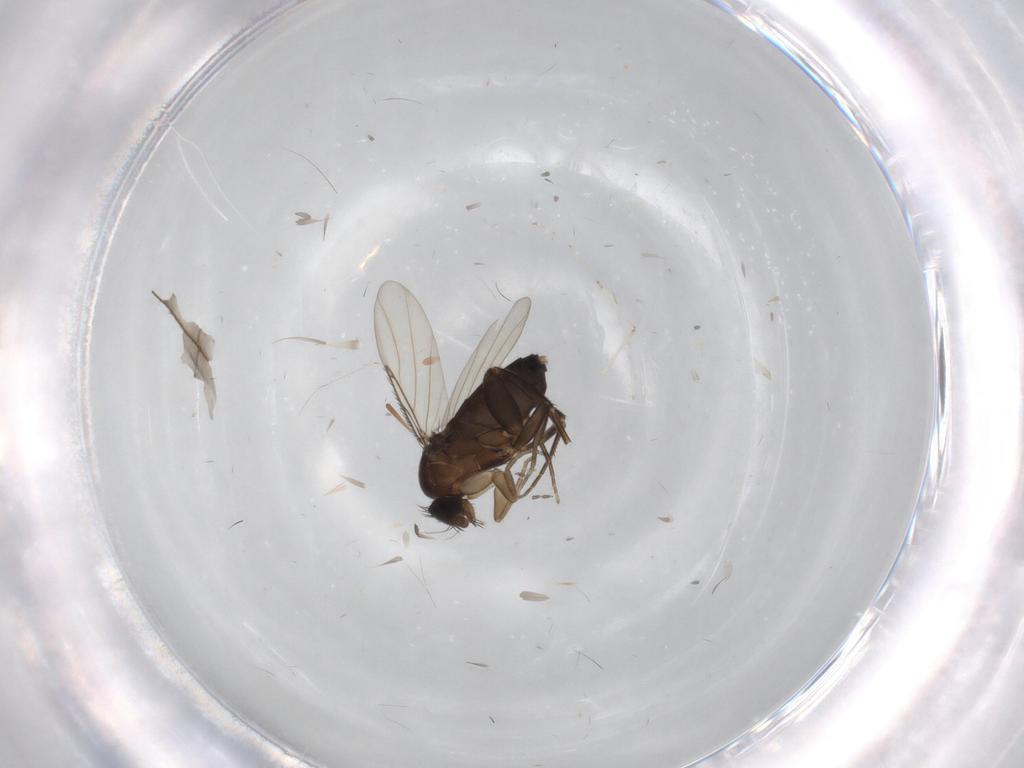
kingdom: Animalia
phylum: Arthropoda
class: Insecta
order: Diptera
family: Phoridae
